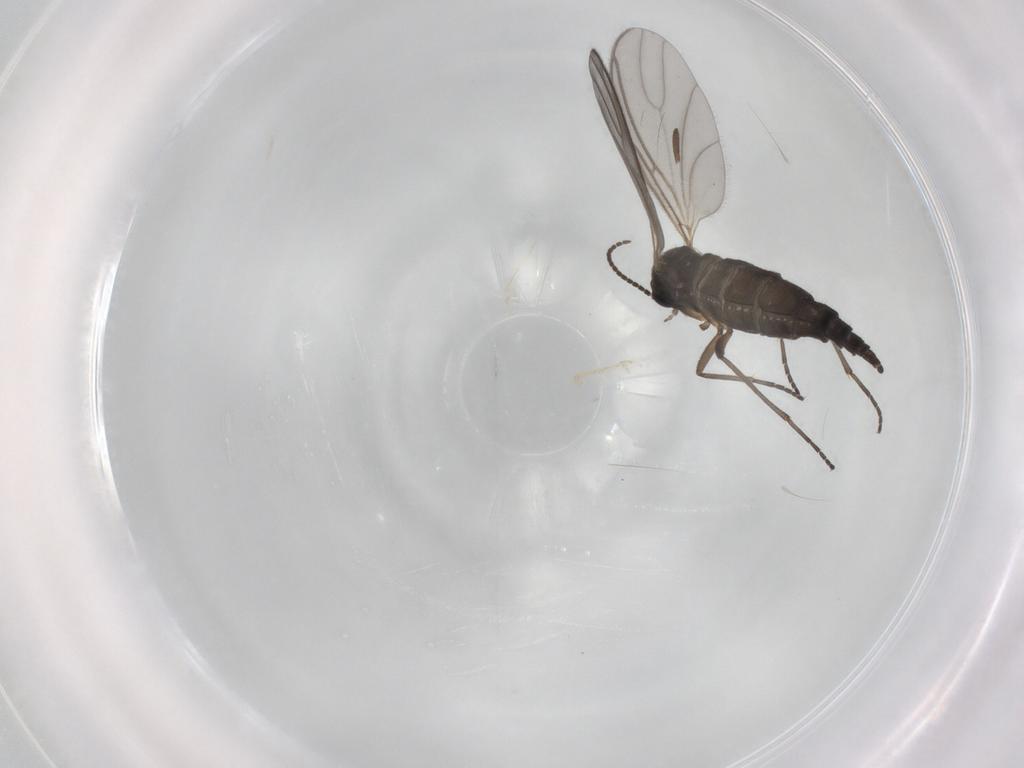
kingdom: Animalia
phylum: Arthropoda
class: Insecta
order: Diptera
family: Sciaridae
